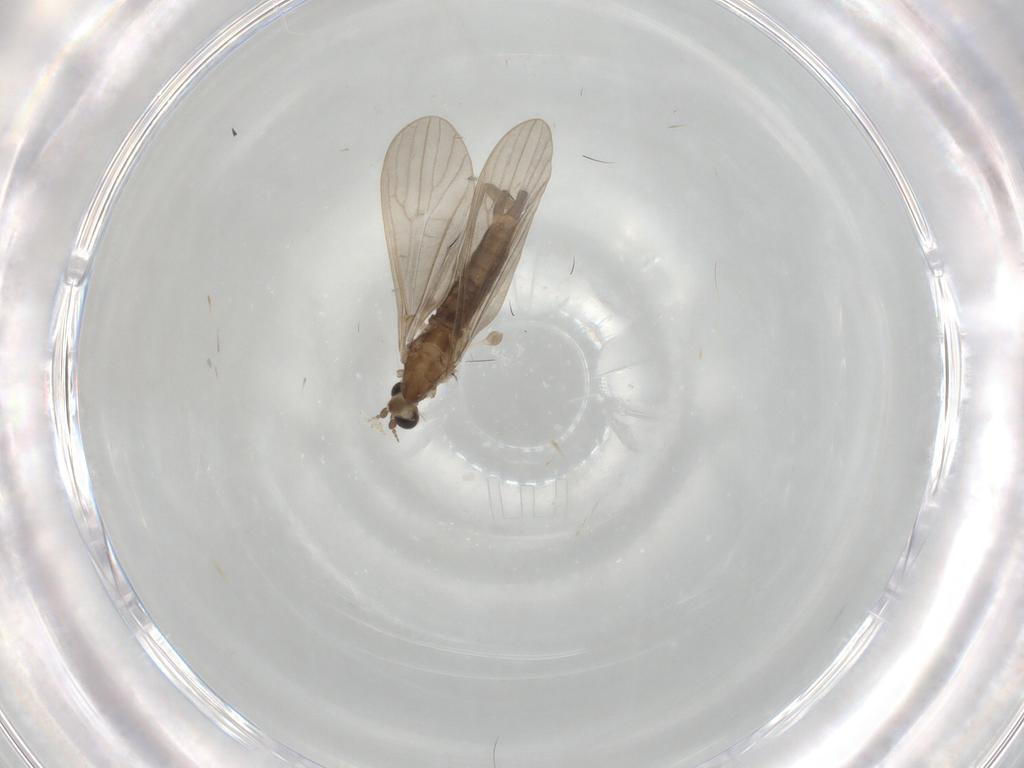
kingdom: Animalia
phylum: Arthropoda
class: Insecta
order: Diptera
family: Limoniidae
